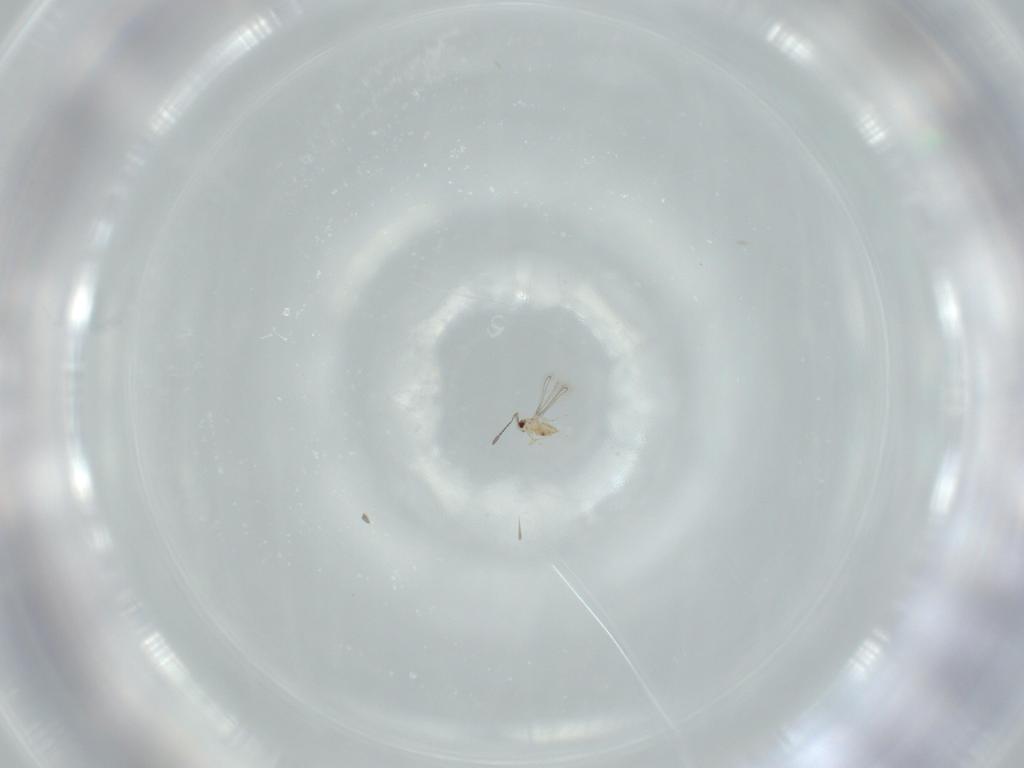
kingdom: Animalia
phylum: Arthropoda
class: Insecta
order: Hymenoptera
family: Mymaridae
